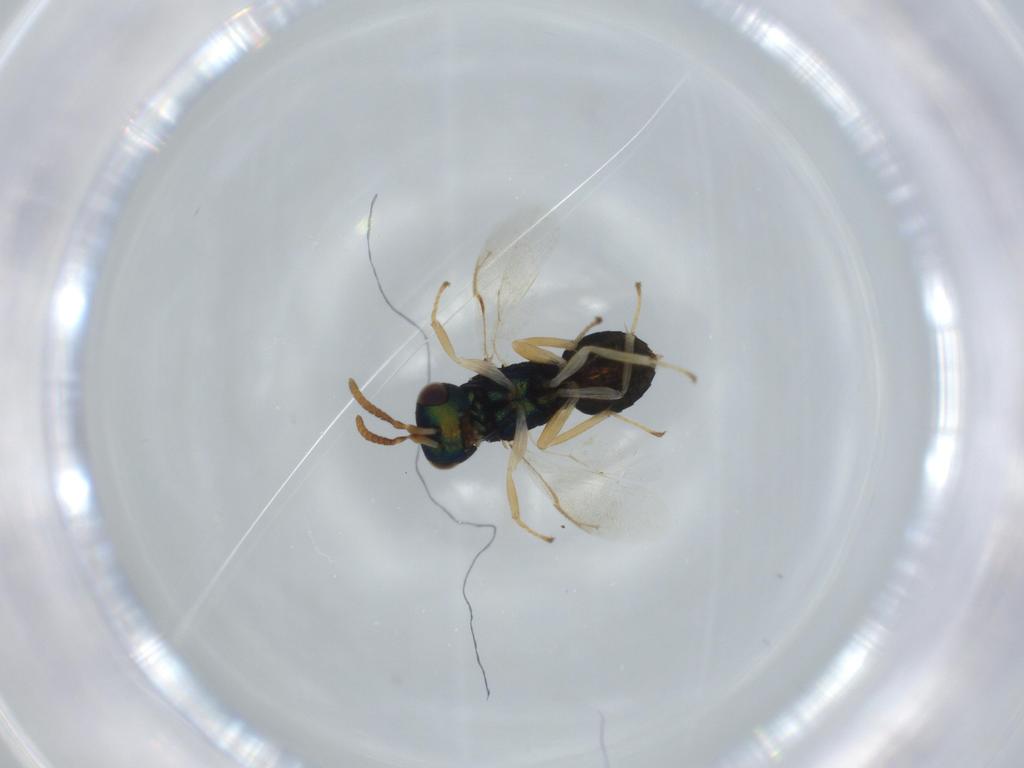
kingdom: Animalia
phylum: Arthropoda
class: Insecta
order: Hymenoptera
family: Pteromalidae
